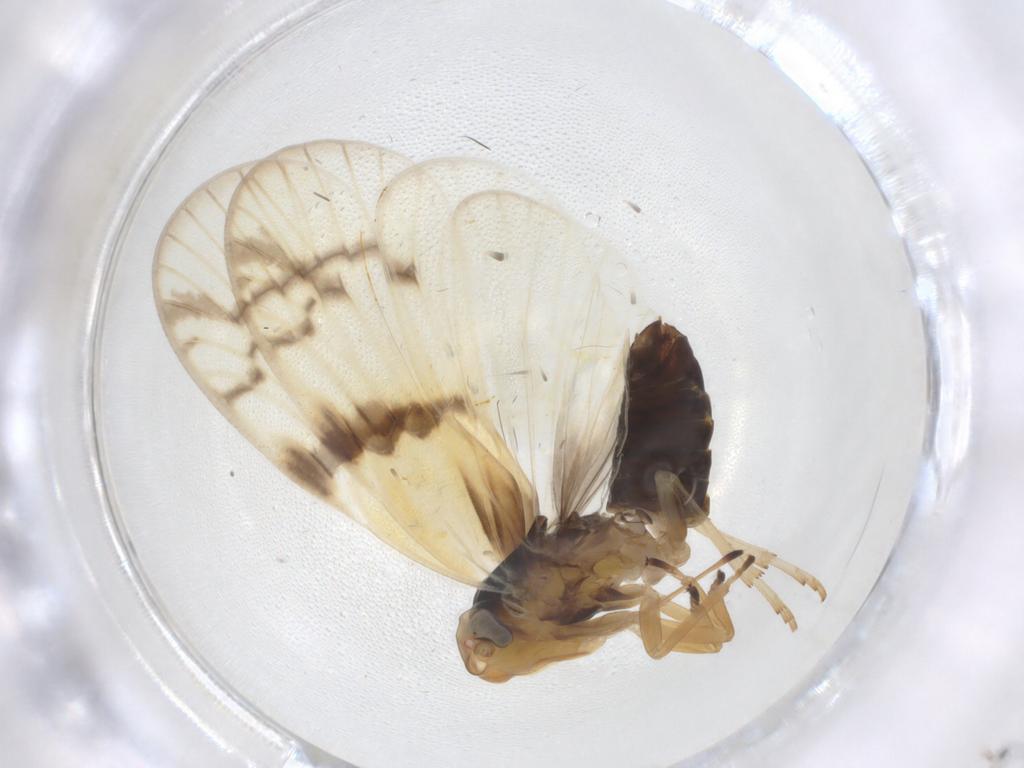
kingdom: Animalia
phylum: Arthropoda
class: Insecta
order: Hemiptera
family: Cixiidae
